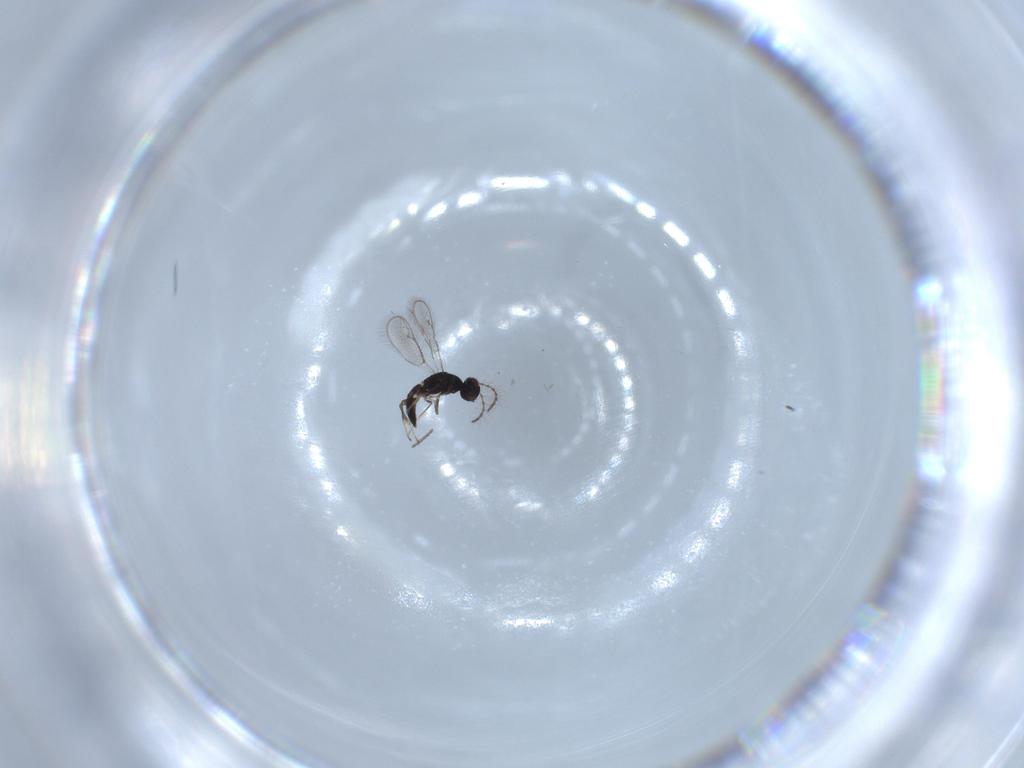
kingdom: Animalia
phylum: Arthropoda
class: Insecta
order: Hymenoptera
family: Pteromalidae
